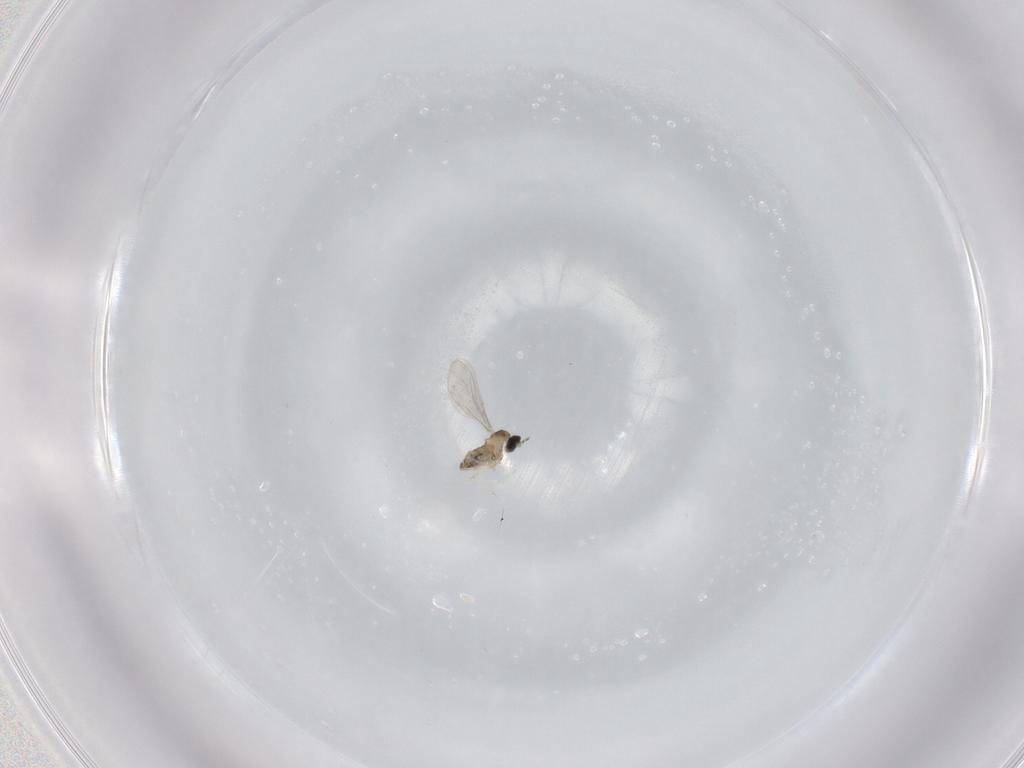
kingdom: Animalia
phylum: Arthropoda
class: Insecta
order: Diptera
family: Cecidomyiidae
